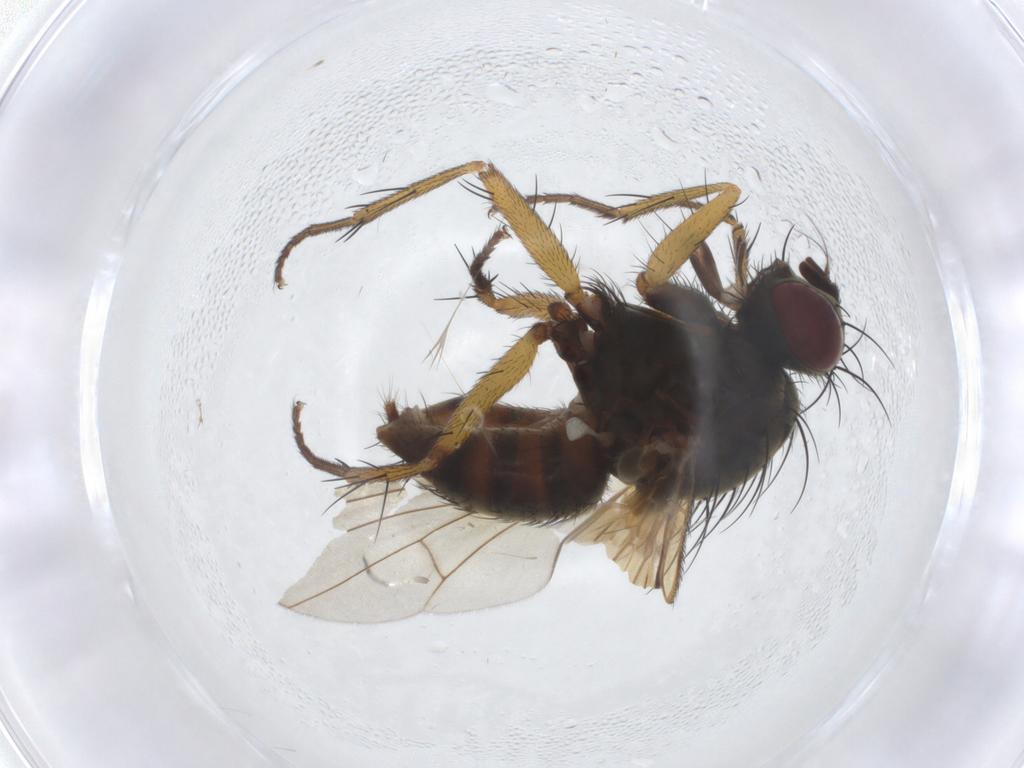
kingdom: Animalia
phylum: Arthropoda
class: Insecta
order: Diptera
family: Muscidae
